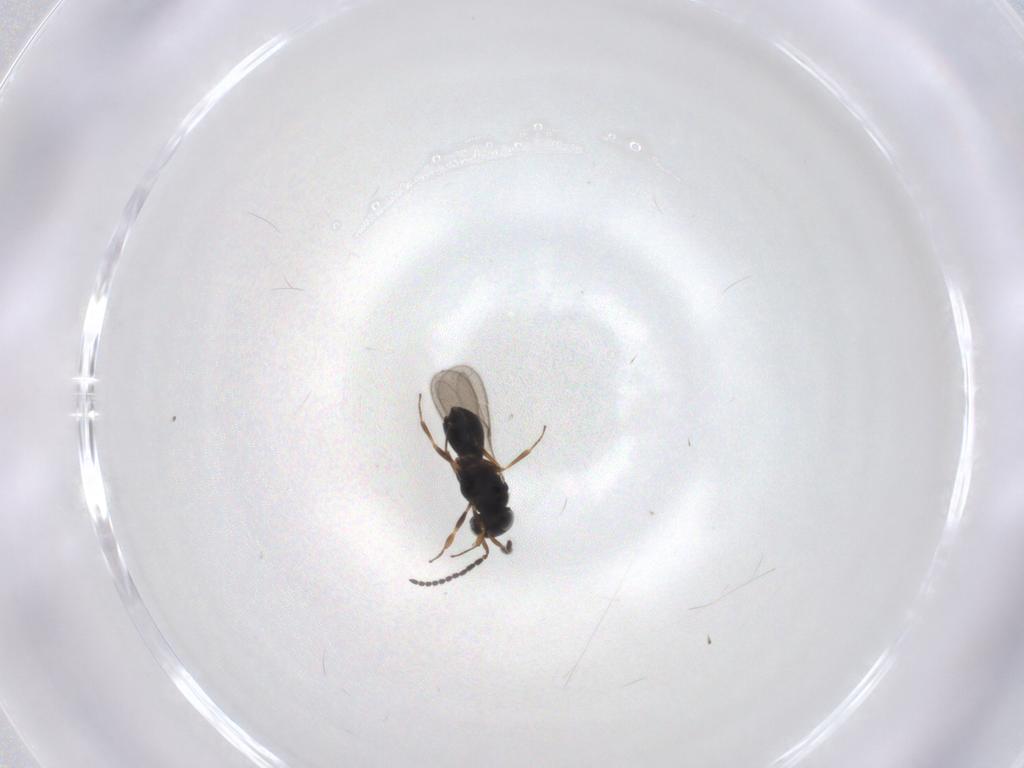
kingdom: Animalia
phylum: Arthropoda
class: Insecta
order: Hymenoptera
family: Scelionidae
